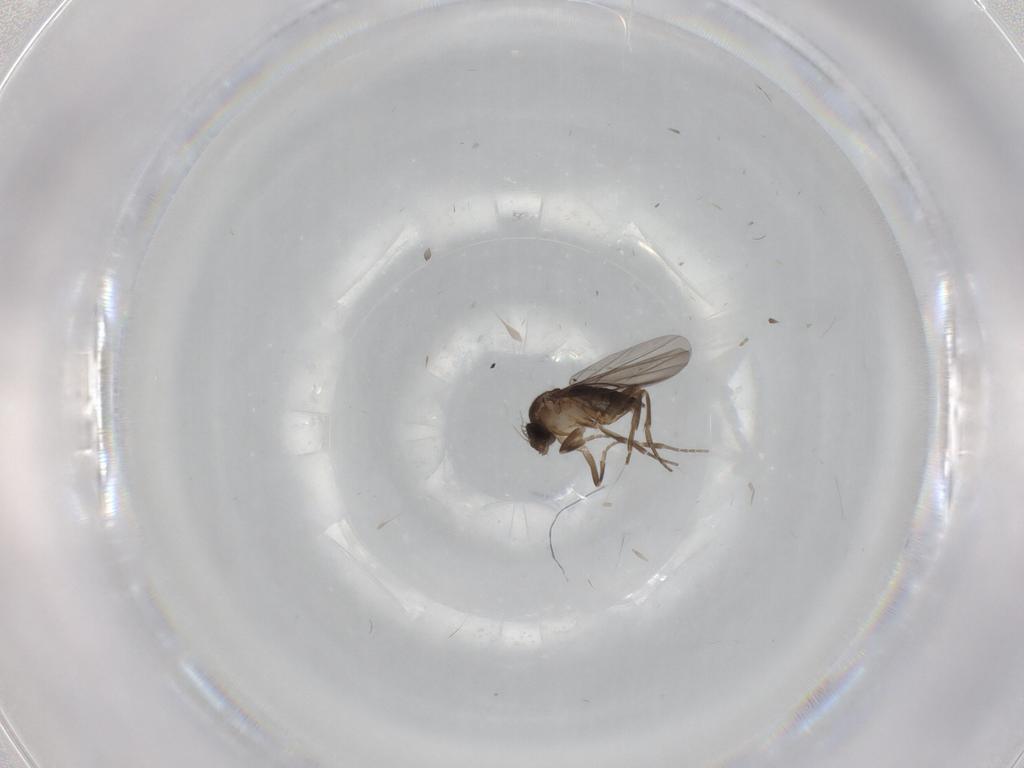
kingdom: Animalia
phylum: Arthropoda
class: Insecta
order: Diptera
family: Phoridae
